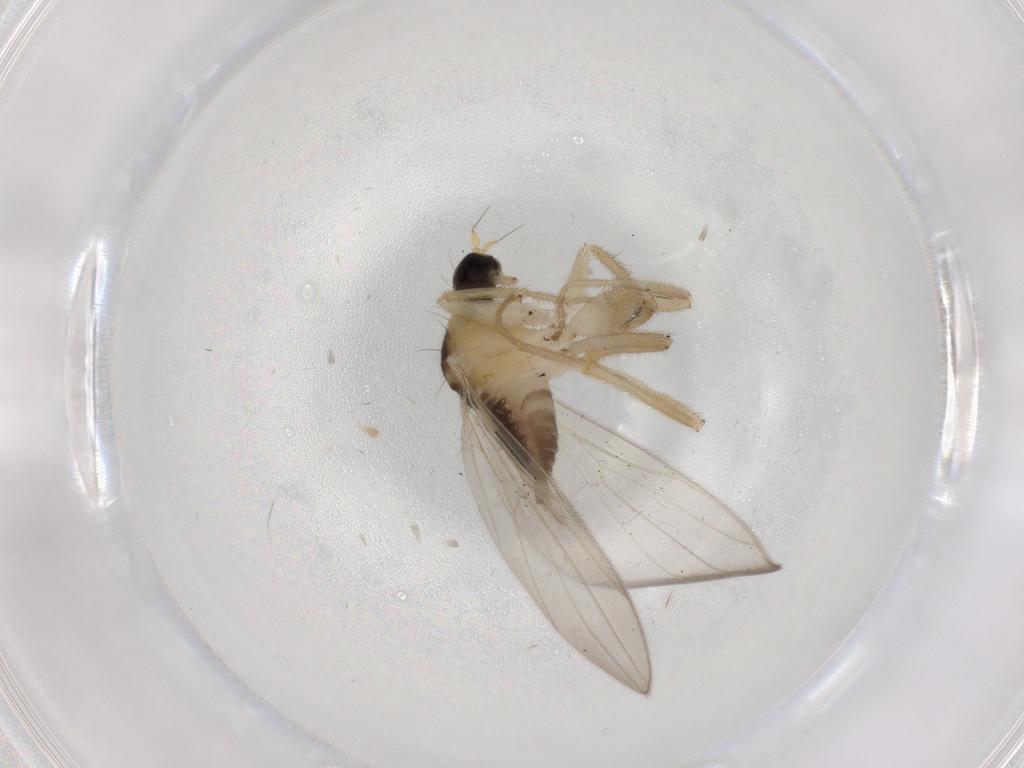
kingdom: Animalia
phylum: Arthropoda
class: Insecta
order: Diptera
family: Hybotidae
